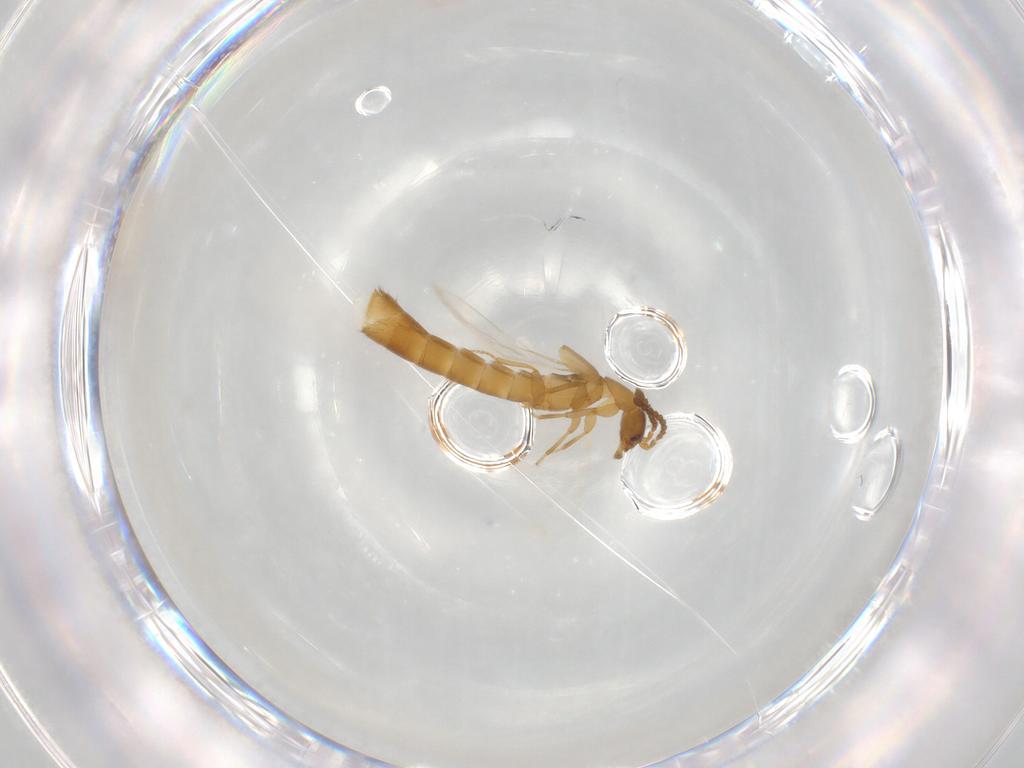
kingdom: Animalia
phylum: Arthropoda
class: Insecta
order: Coleoptera
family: Staphylinidae
